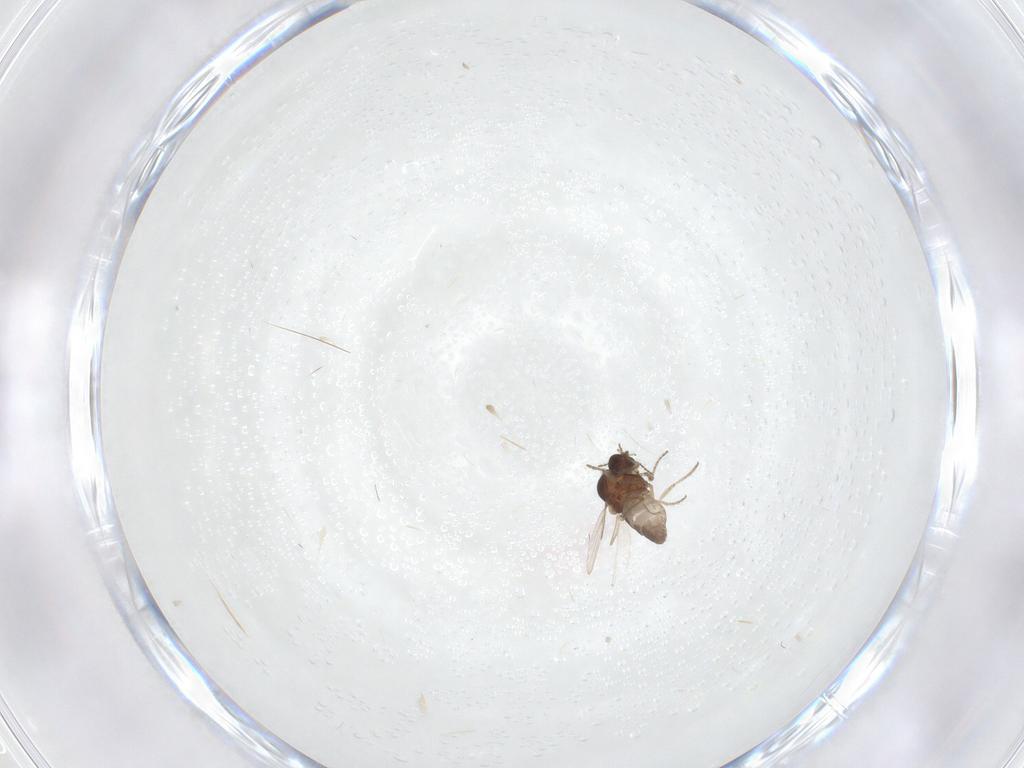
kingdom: Animalia
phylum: Arthropoda
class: Insecta
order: Diptera
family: Ceratopogonidae
